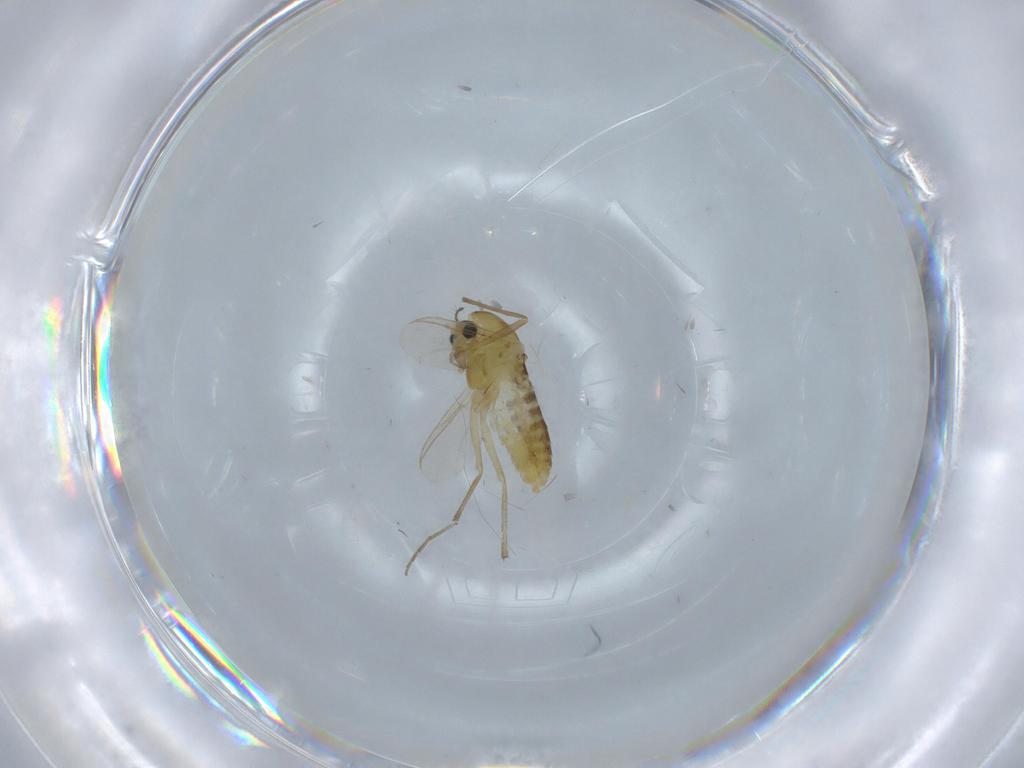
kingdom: Animalia
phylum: Arthropoda
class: Insecta
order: Diptera
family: Chironomidae
